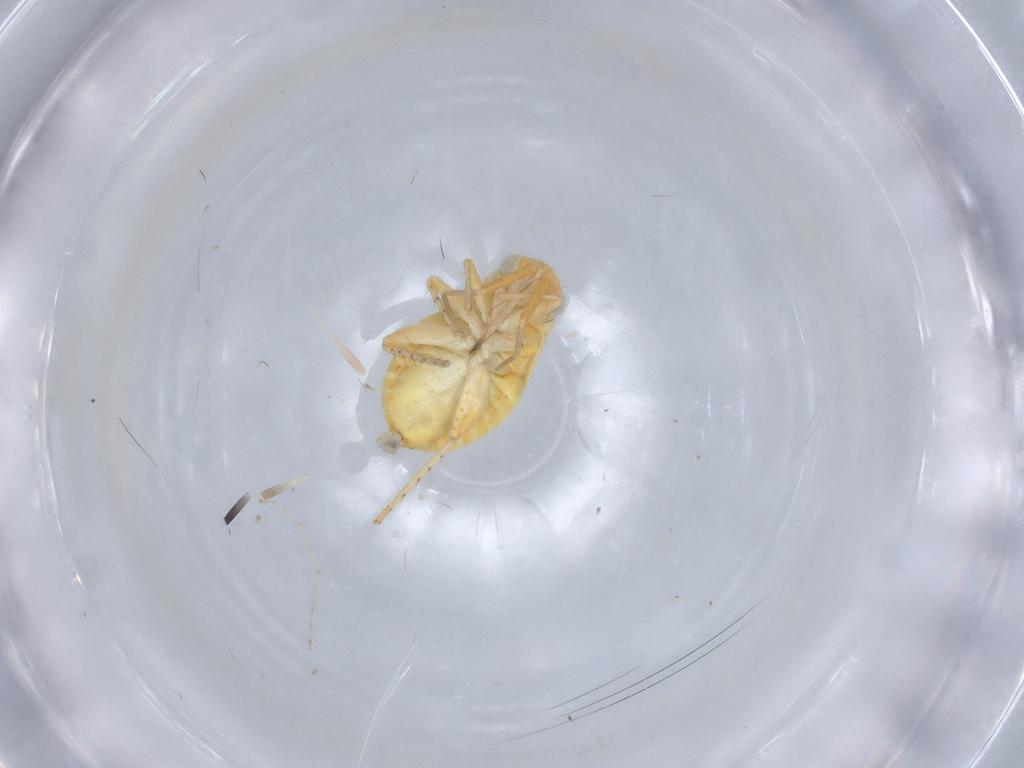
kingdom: Animalia
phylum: Arthropoda
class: Insecta
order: Hemiptera
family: Miridae
